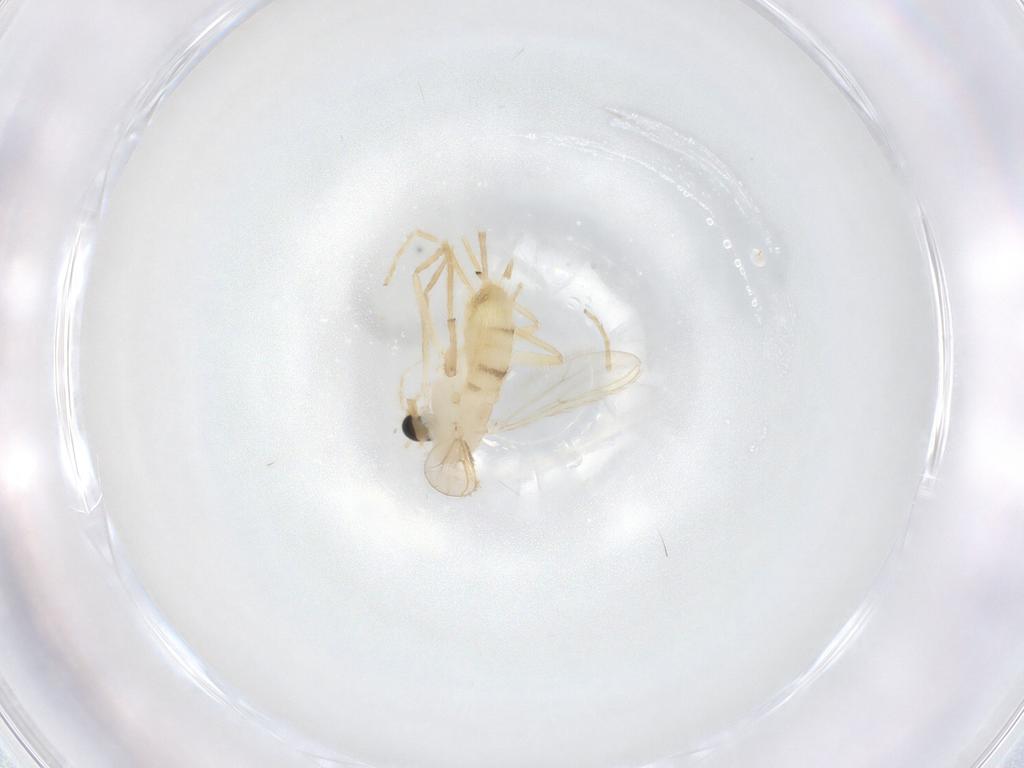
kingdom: Animalia
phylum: Arthropoda
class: Insecta
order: Diptera
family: Chironomidae
